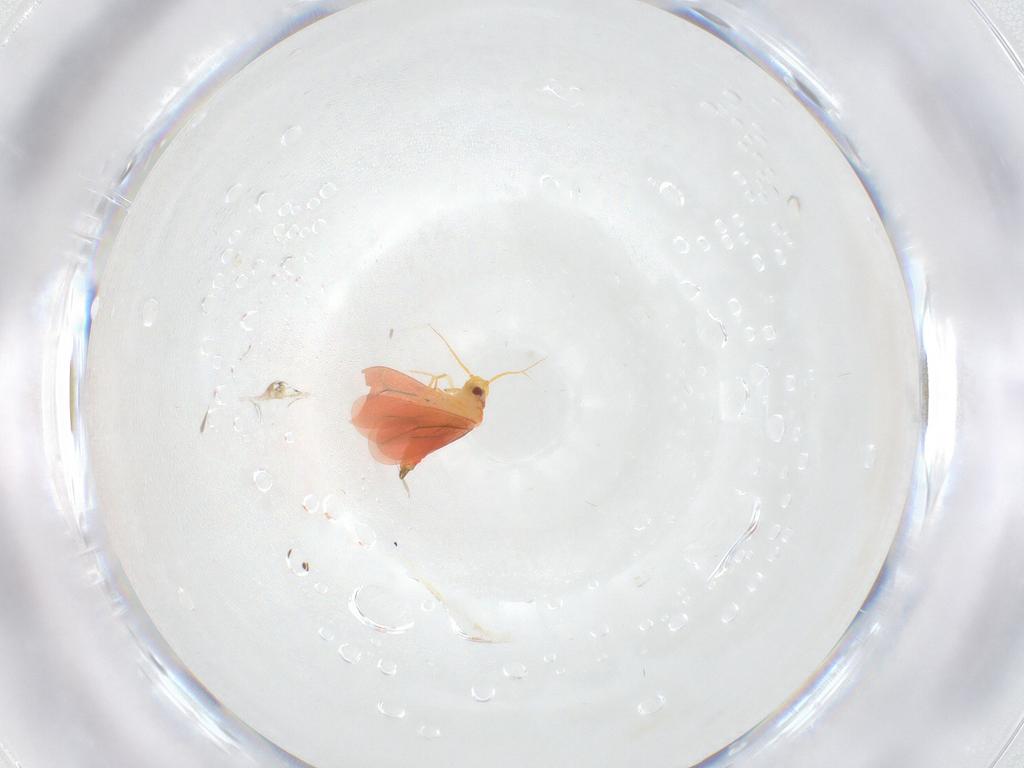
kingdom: Animalia
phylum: Arthropoda
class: Insecta
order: Hemiptera
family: Aleyrodidae
